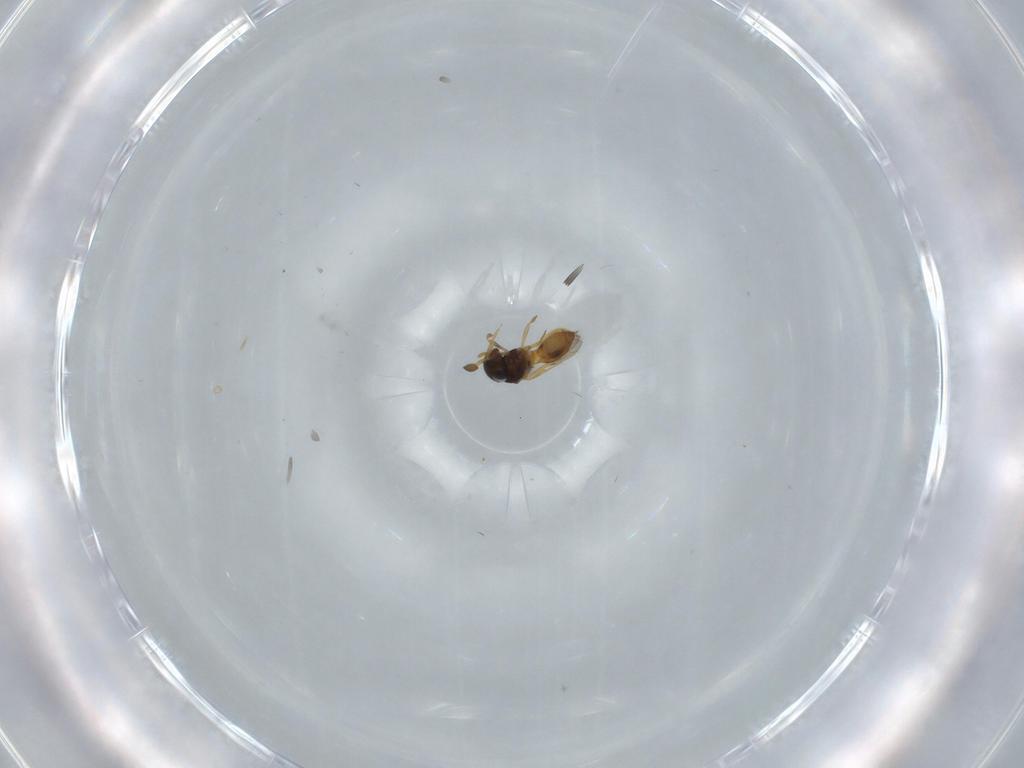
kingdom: Animalia
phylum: Arthropoda
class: Insecta
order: Hymenoptera
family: Scelionidae
